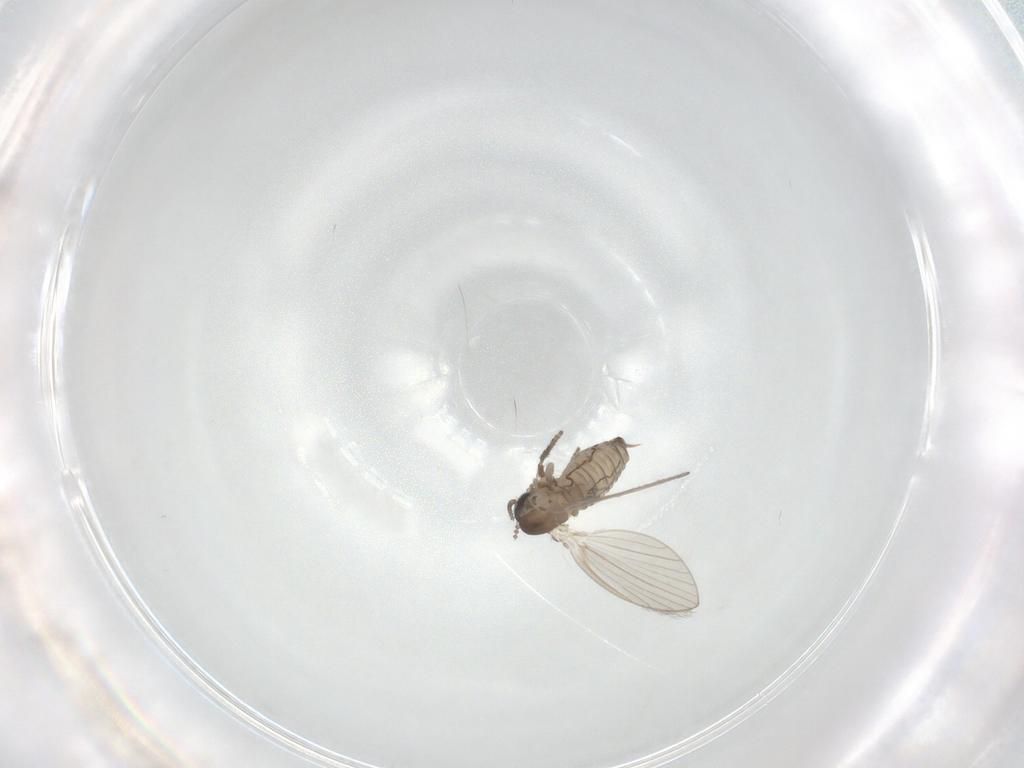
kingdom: Animalia
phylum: Arthropoda
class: Insecta
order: Diptera
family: Psychodidae
